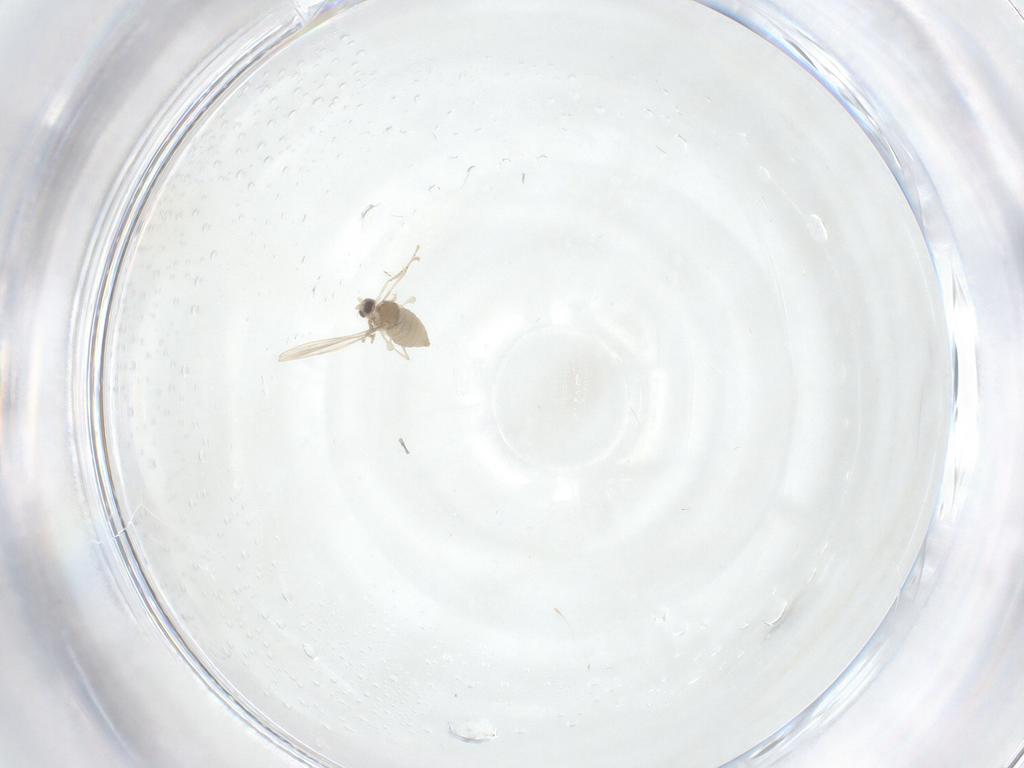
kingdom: Animalia
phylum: Arthropoda
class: Insecta
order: Diptera
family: Cecidomyiidae
